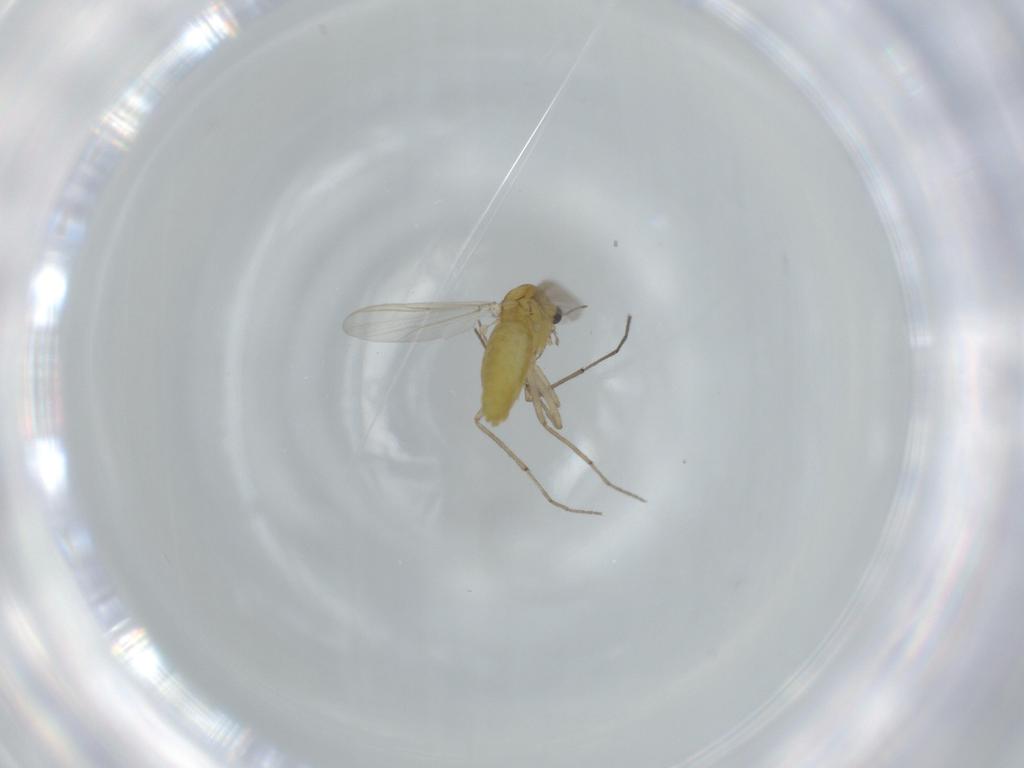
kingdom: Animalia
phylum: Arthropoda
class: Insecta
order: Diptera
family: Chironomidae
